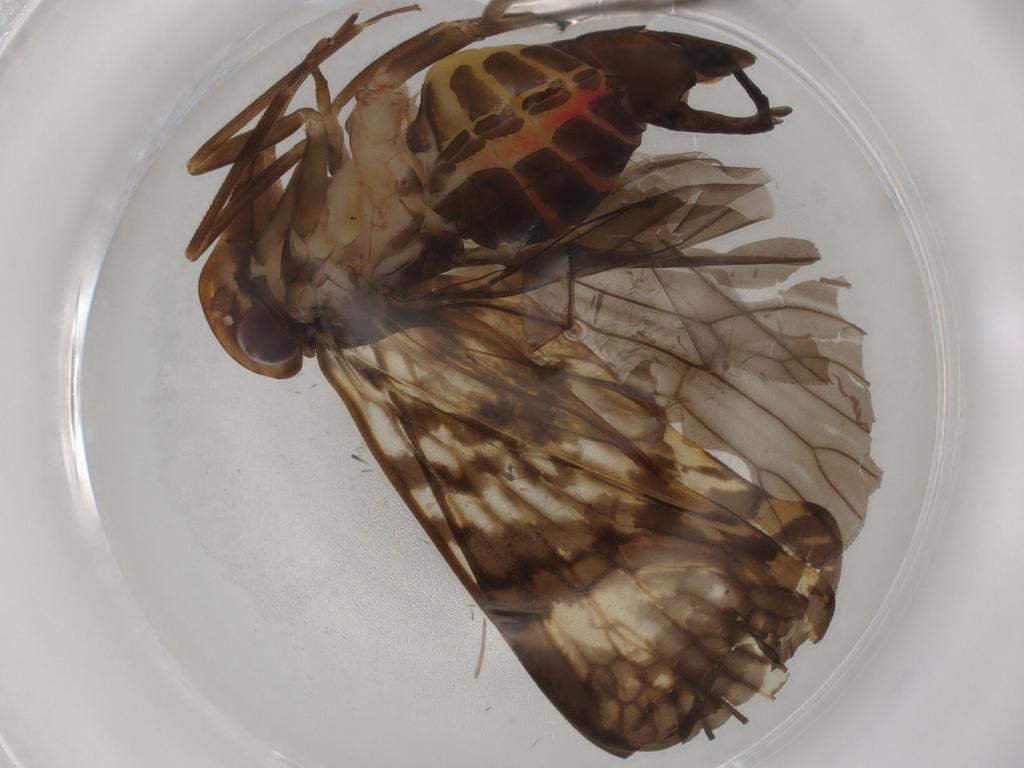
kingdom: Animalia
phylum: Arthropoda
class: Insecta
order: Hemiptera
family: Cixiidae
